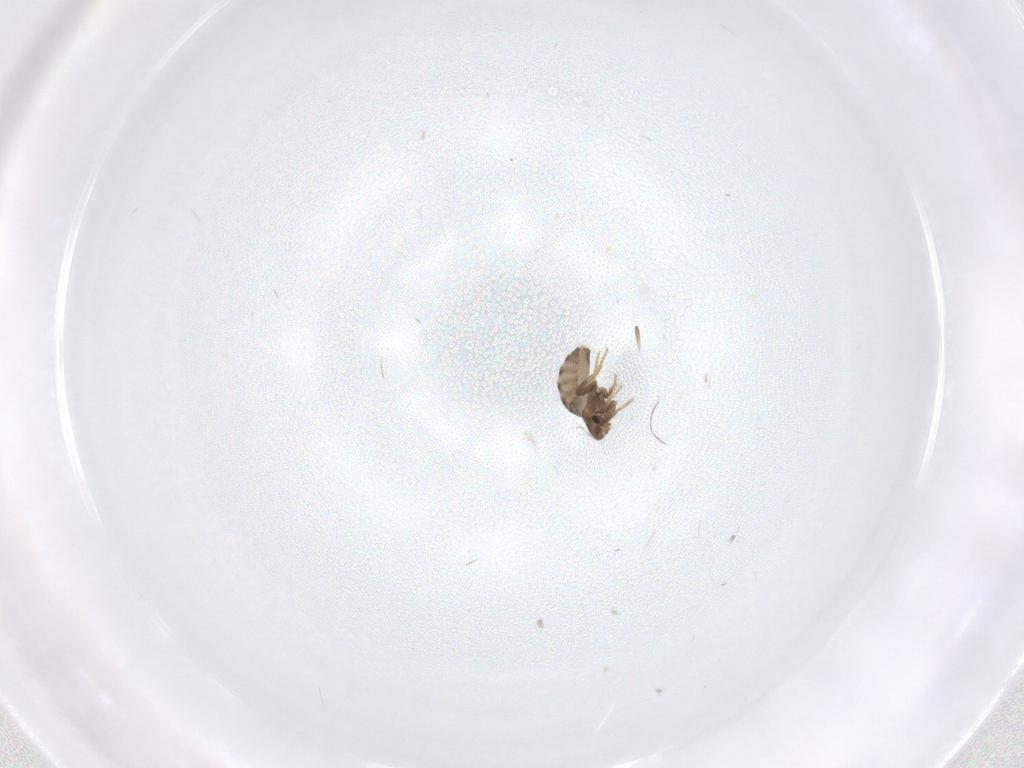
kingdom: Animalia
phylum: Arthropoda
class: Insecta
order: Diptera
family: Phoridae
